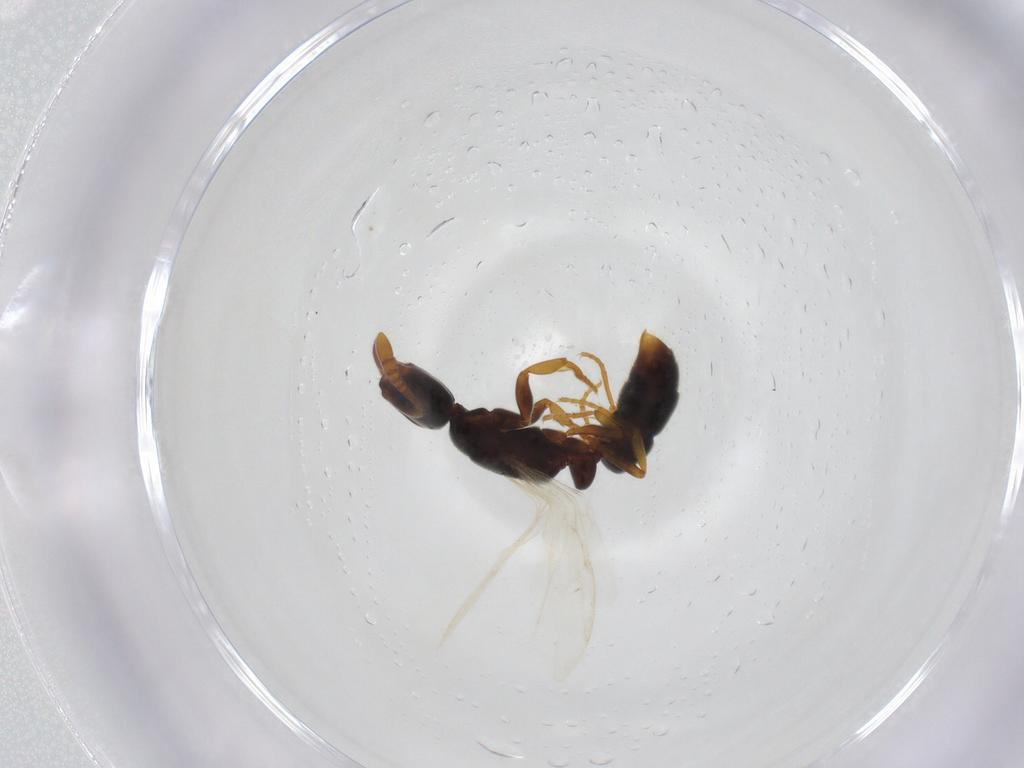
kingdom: Animalia
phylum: Arthropoda
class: Insecta
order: Hymenoptera
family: Formicidae
